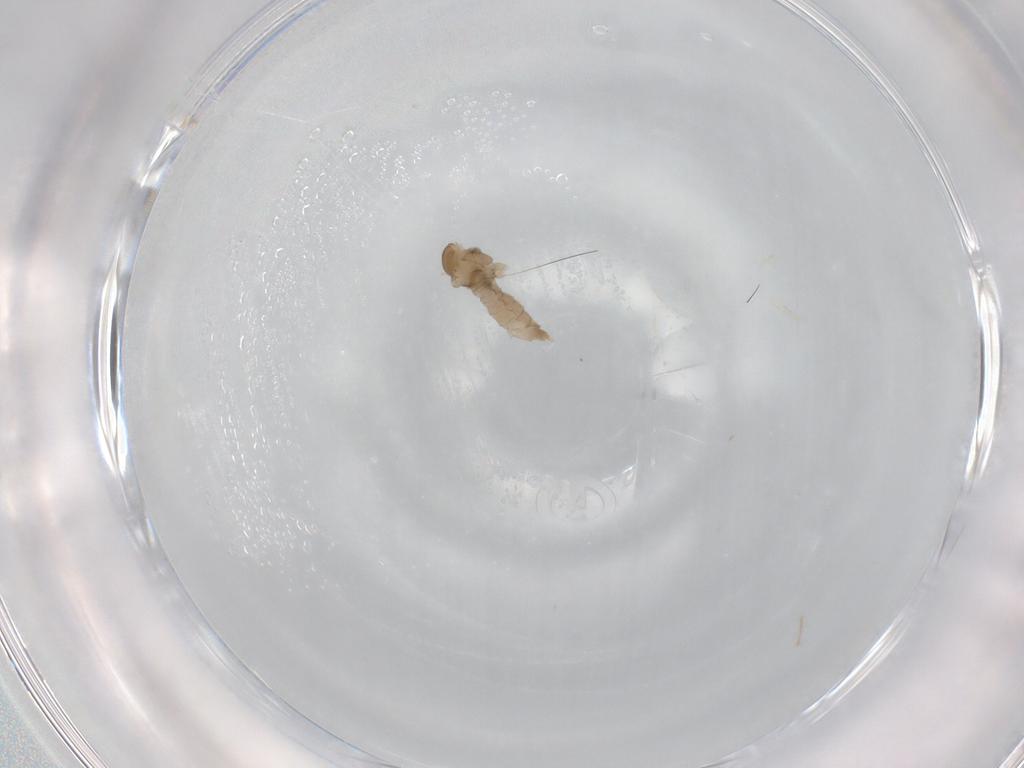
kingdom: Animalia
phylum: Arthropoda
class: Insecta
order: Diptera
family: Cecidomyiidae
